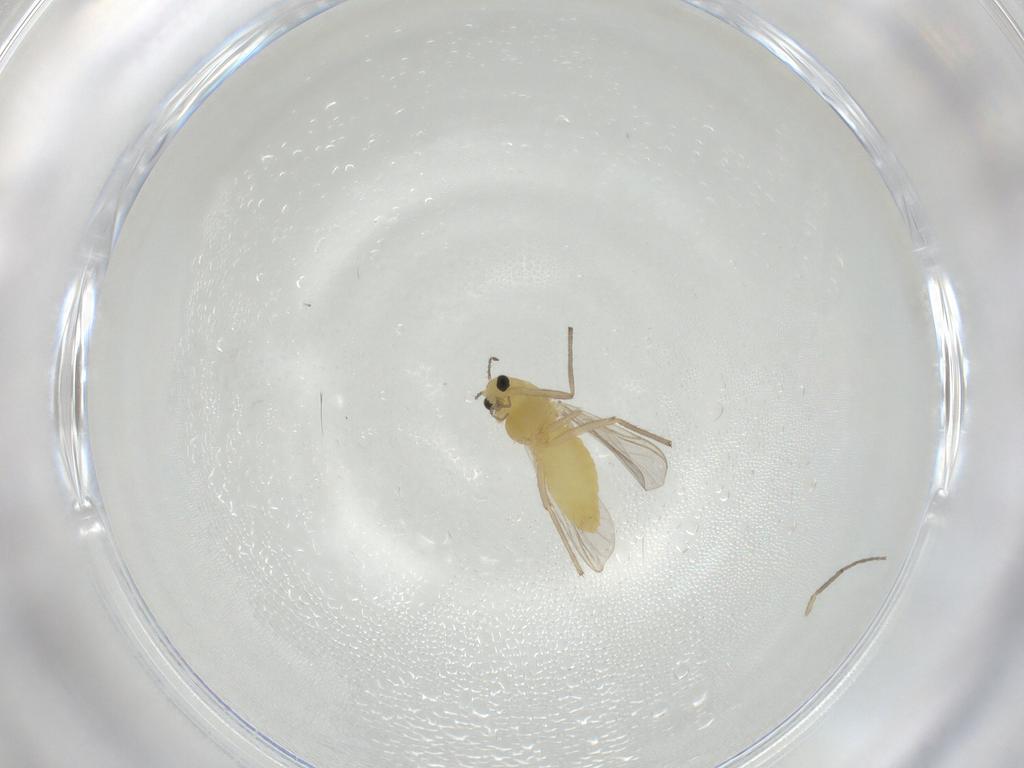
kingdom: Animalia
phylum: Arthropoda
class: Insecta
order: Diptera
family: Chironomidae
